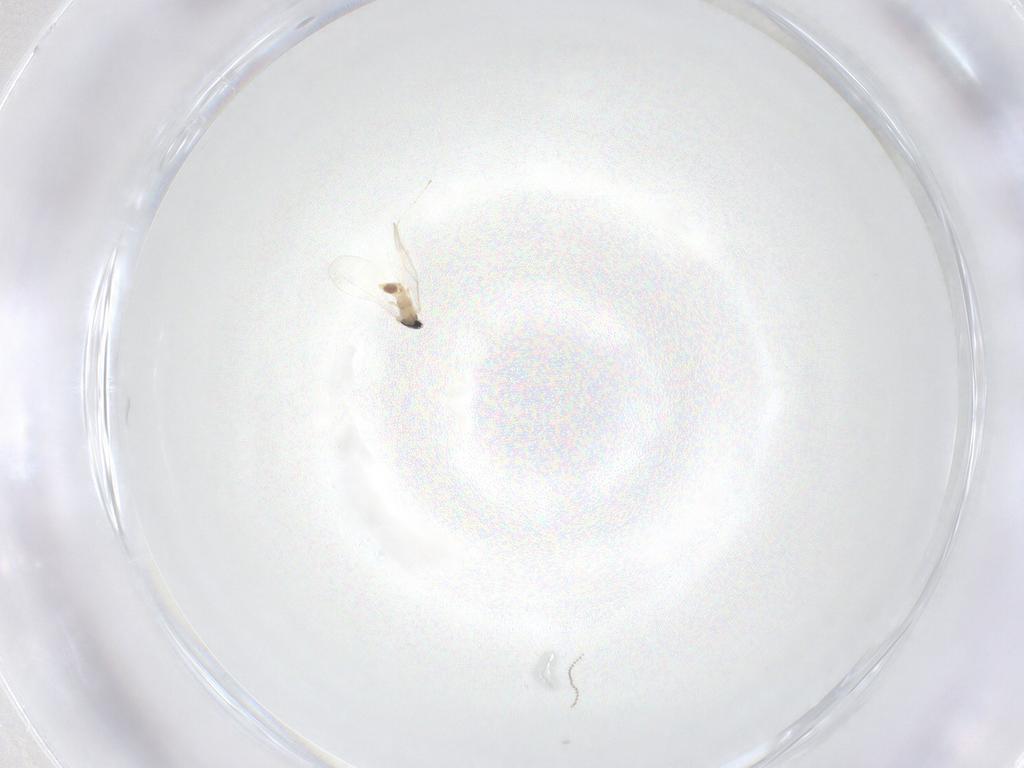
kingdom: Animalia
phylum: Arthropoda
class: Insecta
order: Diptera
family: Cecidomyiidae
